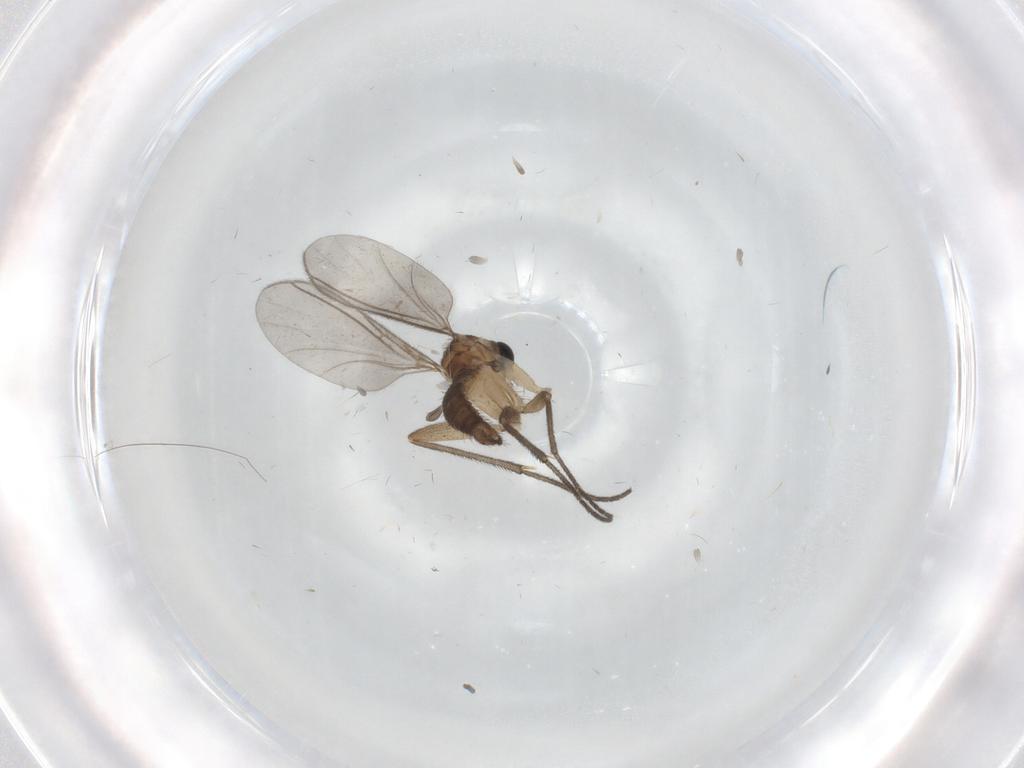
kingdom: Animalia
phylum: Arthropoda
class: Insecta
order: Diptera
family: Sciaridae
